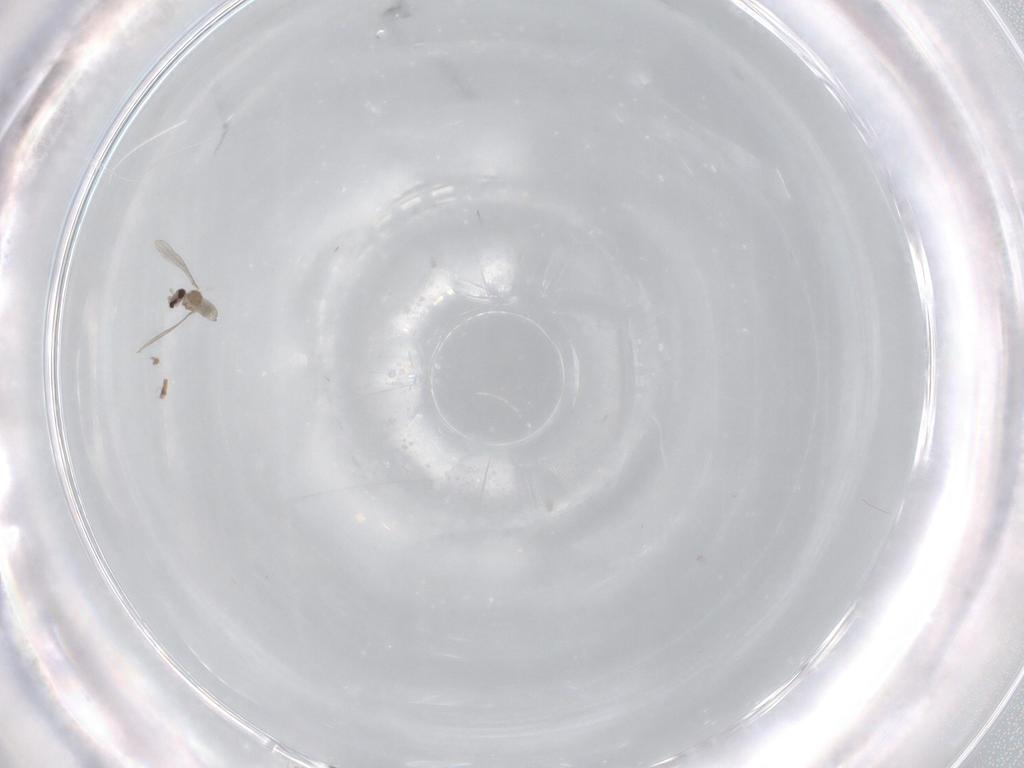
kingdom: Animalia
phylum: Arthropoda
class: Insecta
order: Diptera
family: Cecidomyiidae
